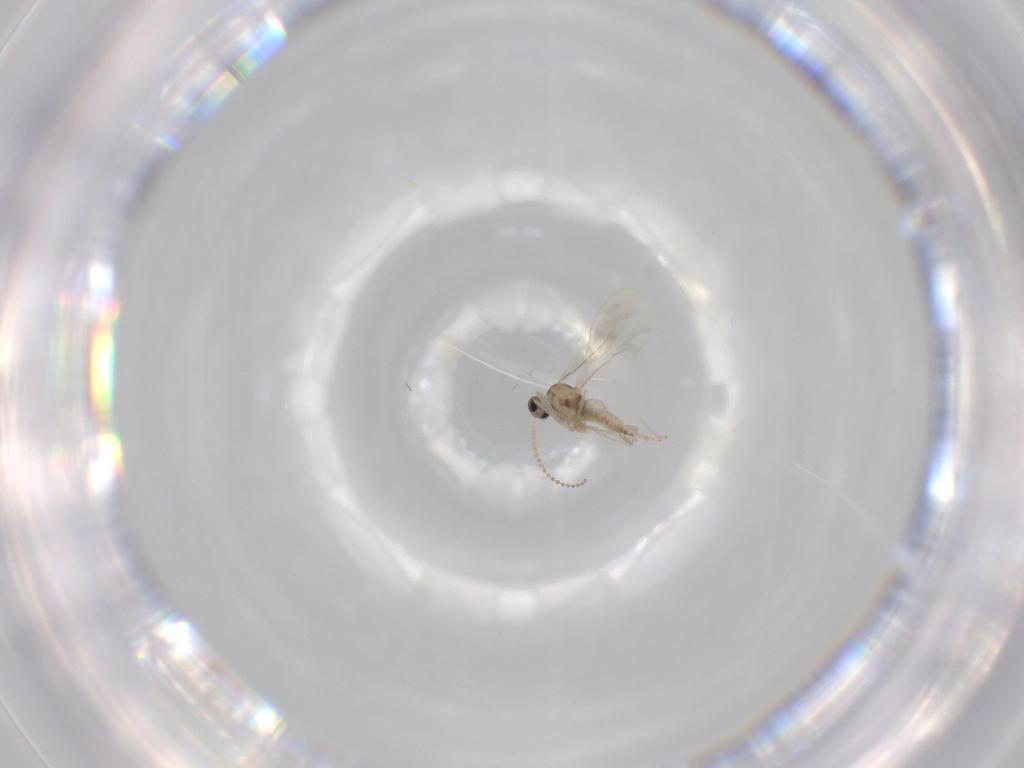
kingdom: Animalia
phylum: Arthropoda
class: Insecta
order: Diptera
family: Cecidomyiidae
